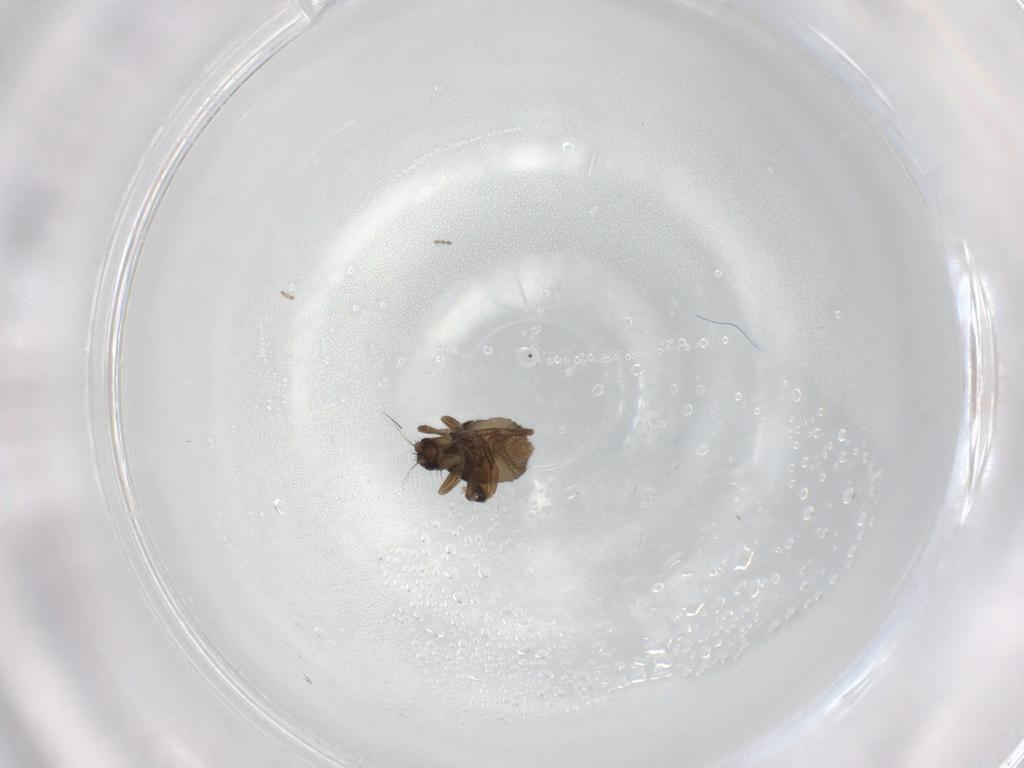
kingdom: Animalia
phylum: Arthropoda
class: Insecta
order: Diptera
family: Phoridae
